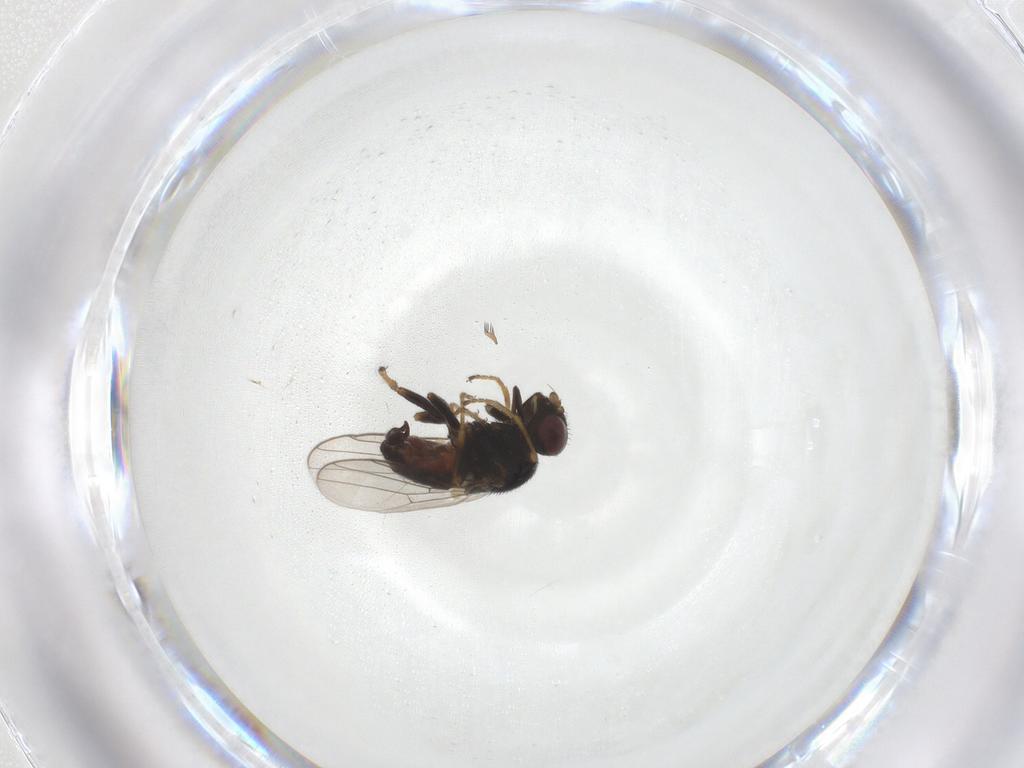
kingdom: Animalia
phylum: Arthropoda
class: Insecta
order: Diptera
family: Chloropidae
